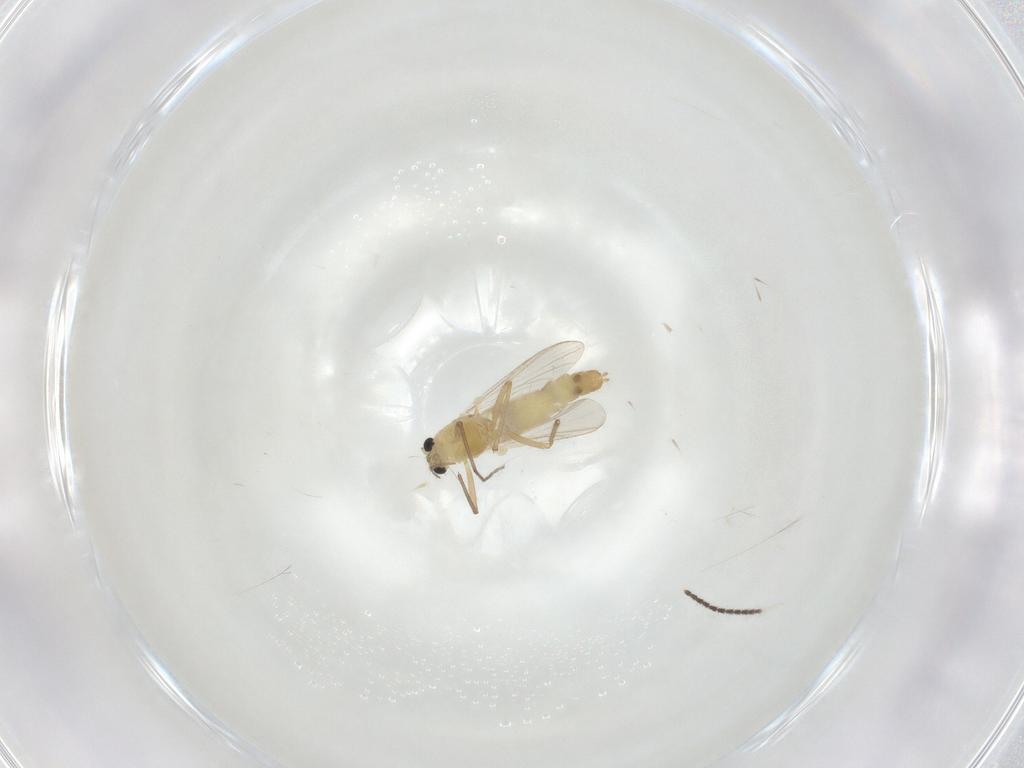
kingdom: Animalia
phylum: Arthropoda
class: Insecta
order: Diptera
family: Chironomidae
